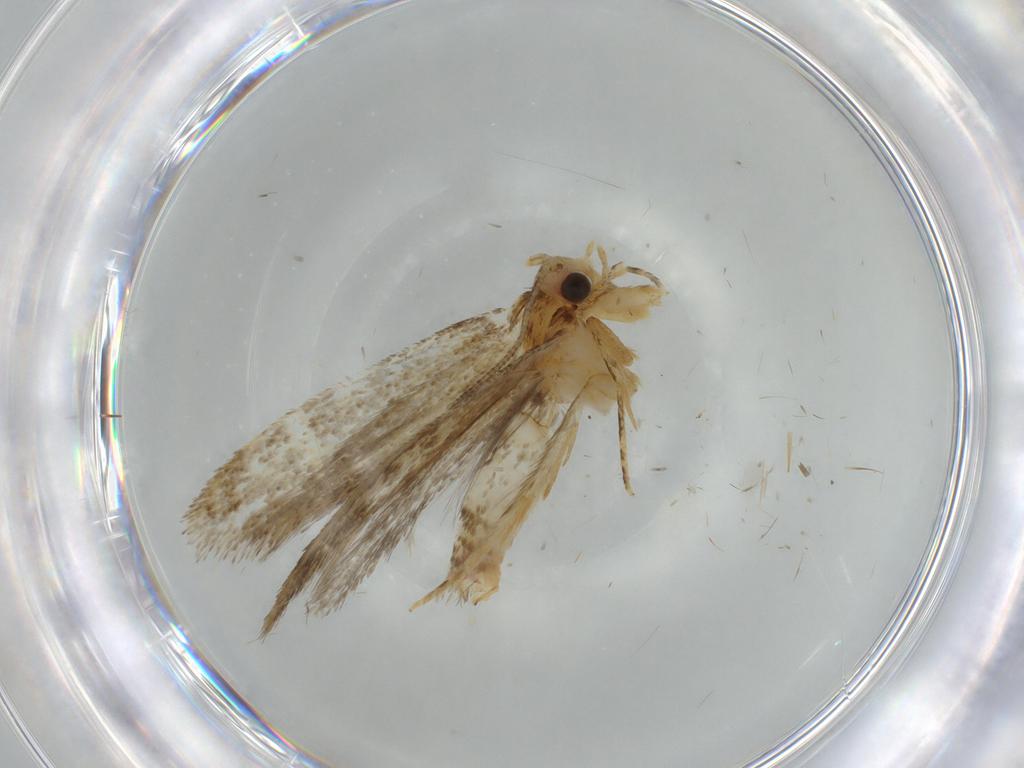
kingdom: Animalia
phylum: Arthropoda
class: Insecta
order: Lepidoptera
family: Tineidae
